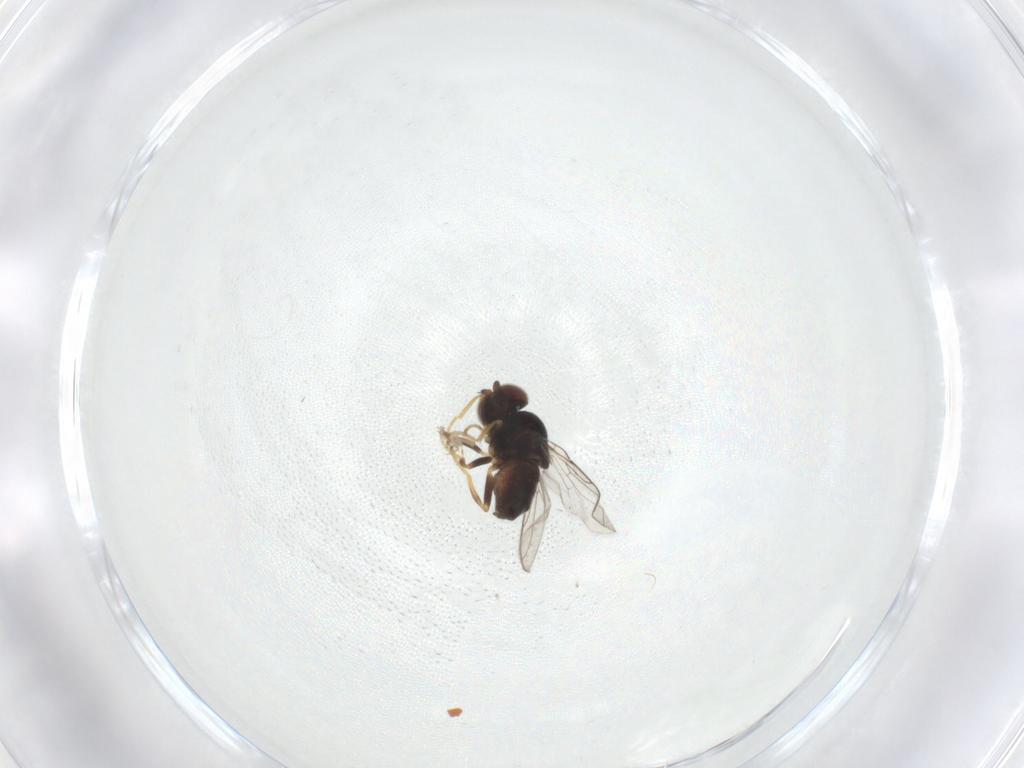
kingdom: Animalia
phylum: Arthropoda
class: Insecta
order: Diptera
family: Chloropidae
